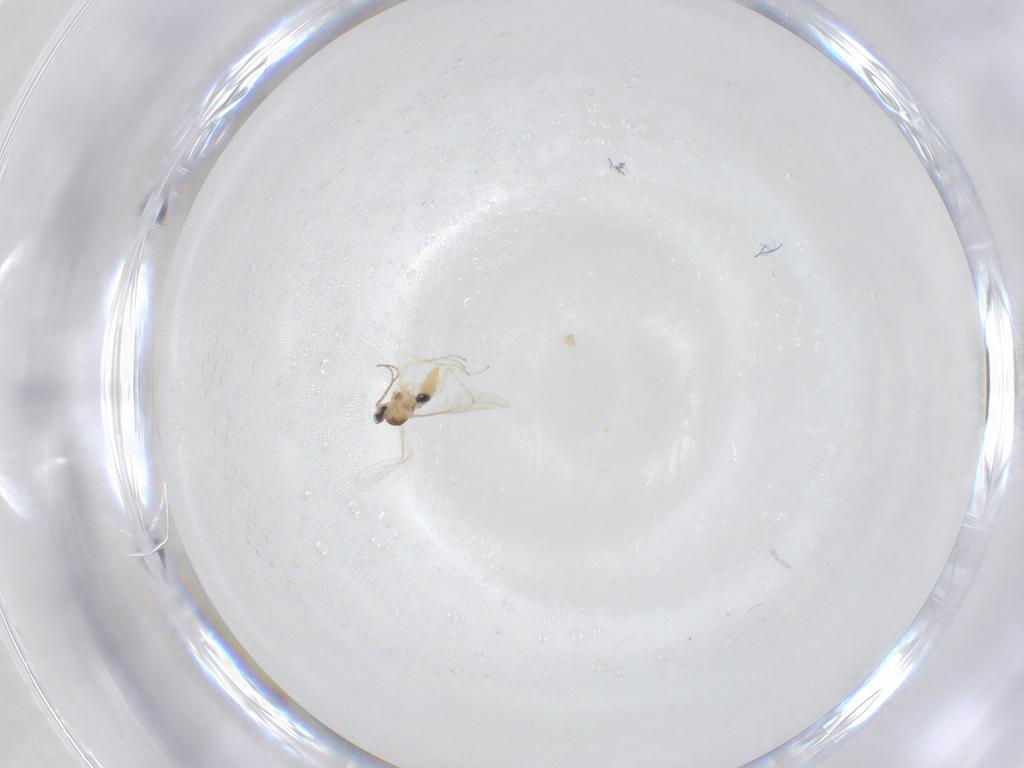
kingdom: Animalia
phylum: Arthropoda
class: Insecta
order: Diptera
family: Cecidomyiidae
